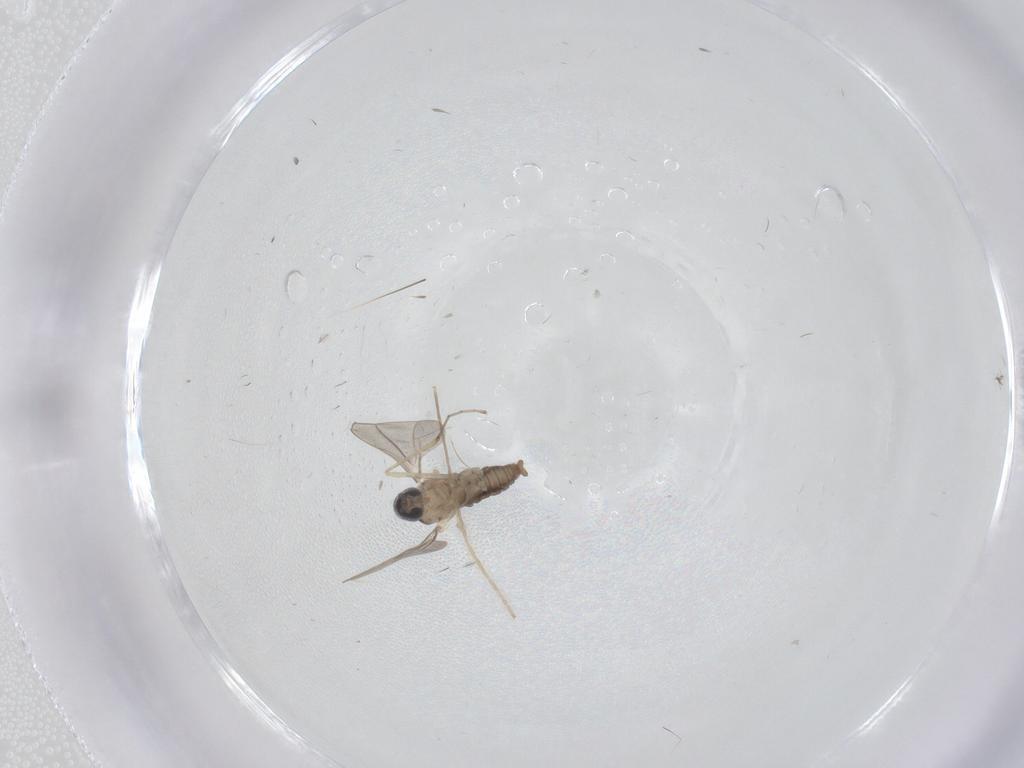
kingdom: Animalia
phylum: Arthropoda
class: Insecta
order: Diptera
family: Cecidomyiidae
